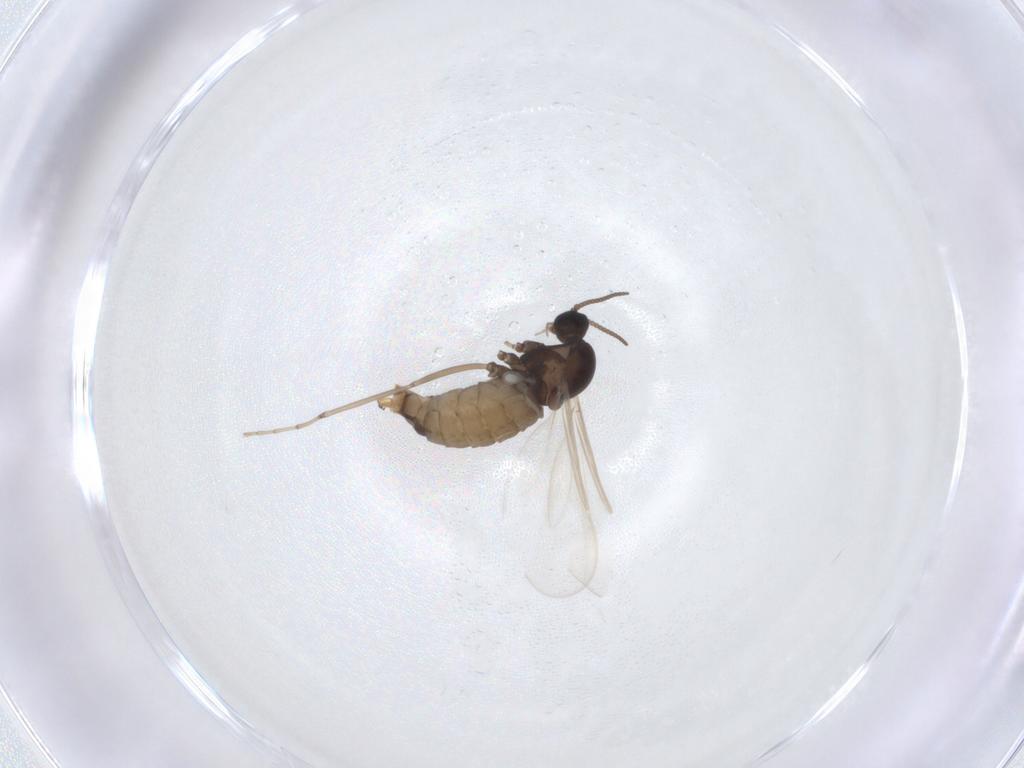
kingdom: Animalia
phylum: Arthropoda
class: Insecta
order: Diptera
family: Cecidomyiidae
